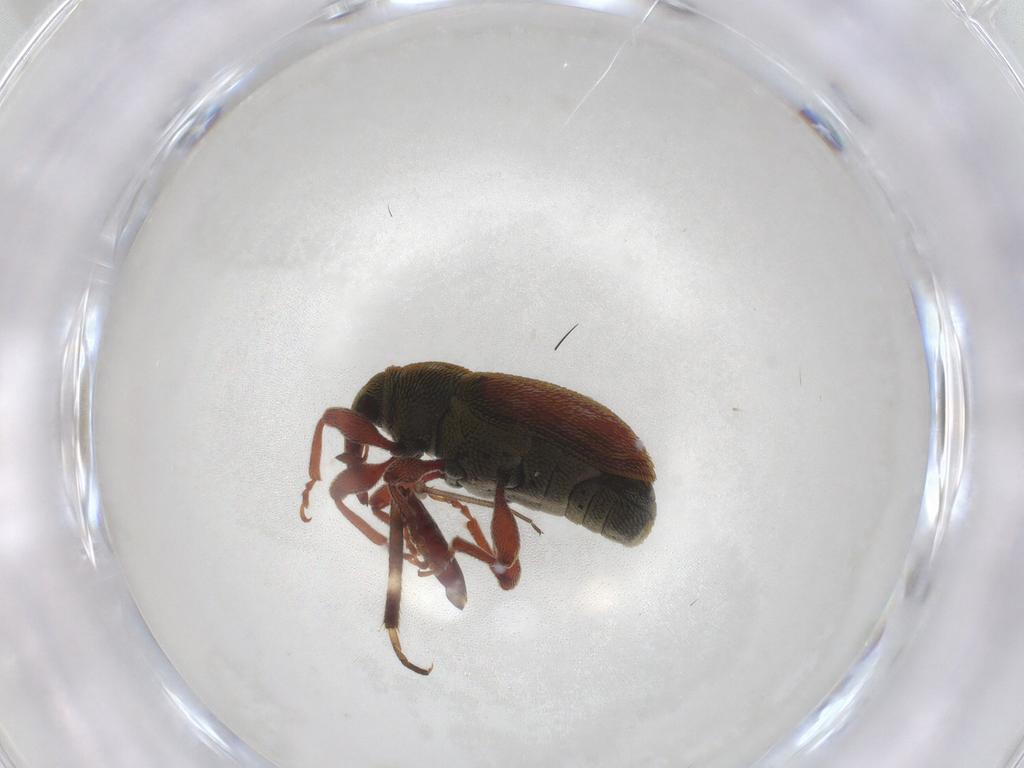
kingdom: Animalia
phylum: Arthropoda
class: Insecta
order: Coleoptera
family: Curculionidae
